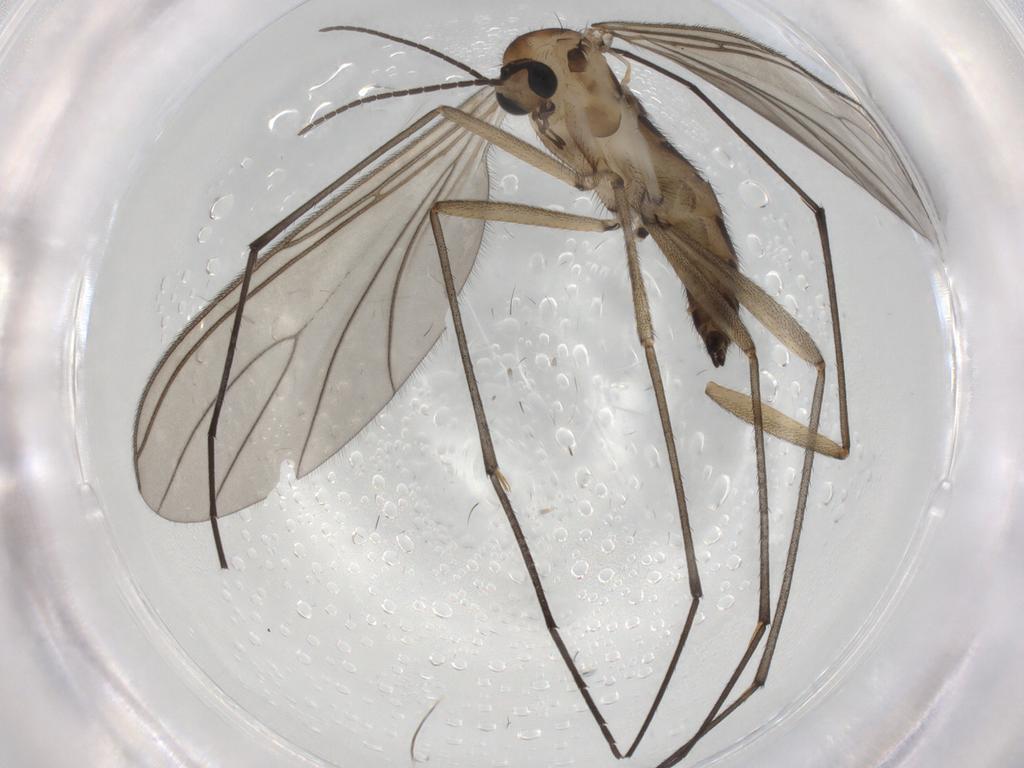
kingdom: Animalia
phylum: Arthropoda
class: Insecta
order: Diptera
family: Sciaridae
